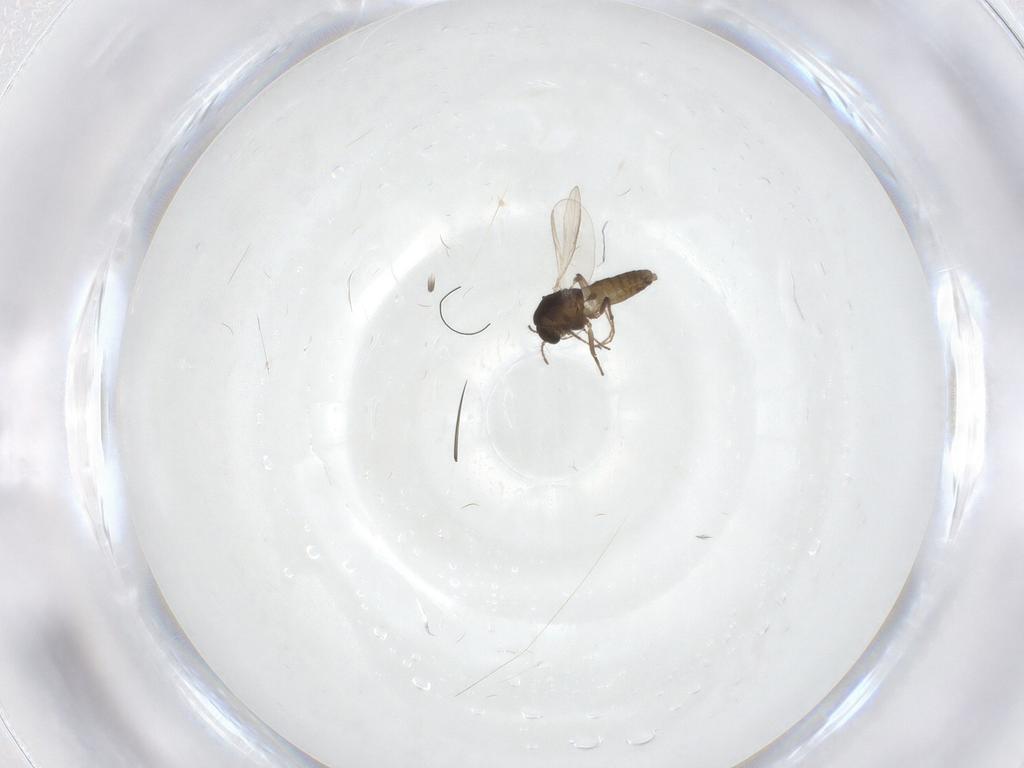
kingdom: Animalia
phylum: Arthropoda
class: Insecta
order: Diptera
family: Chironomidae
